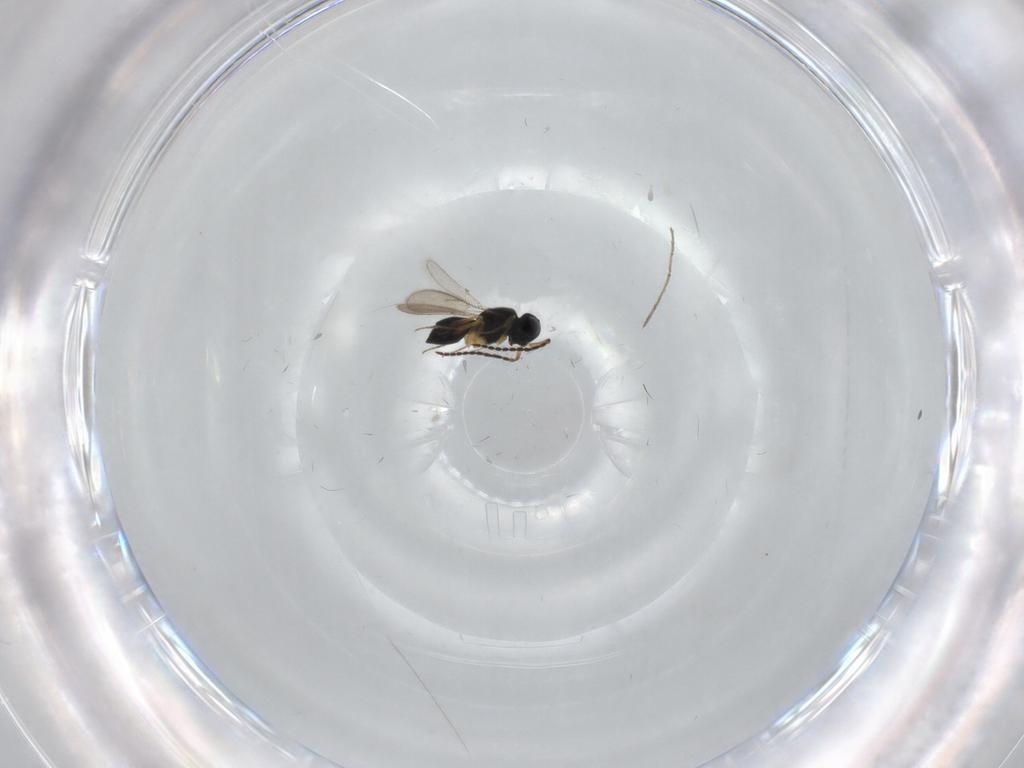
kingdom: Animalia
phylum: Arthropoda
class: Insecta
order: Hymenoptera
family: Scelionidae
